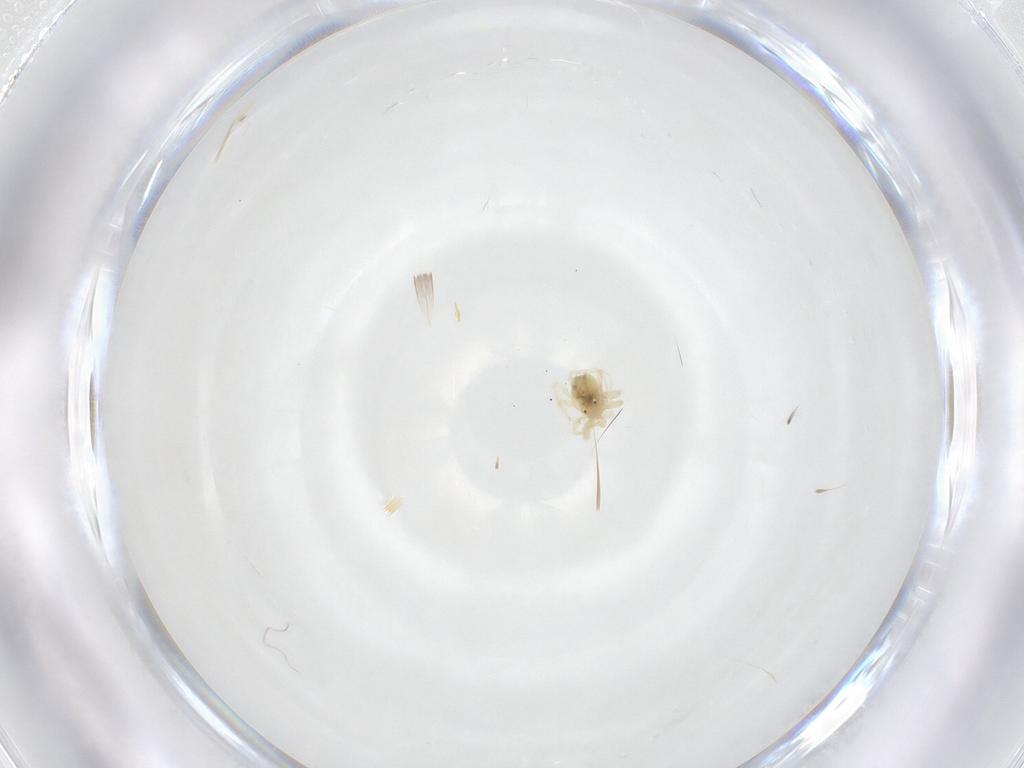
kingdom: Animalia
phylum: Arthropoda
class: Arachnida
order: Trombidiformes
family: Anystidae
